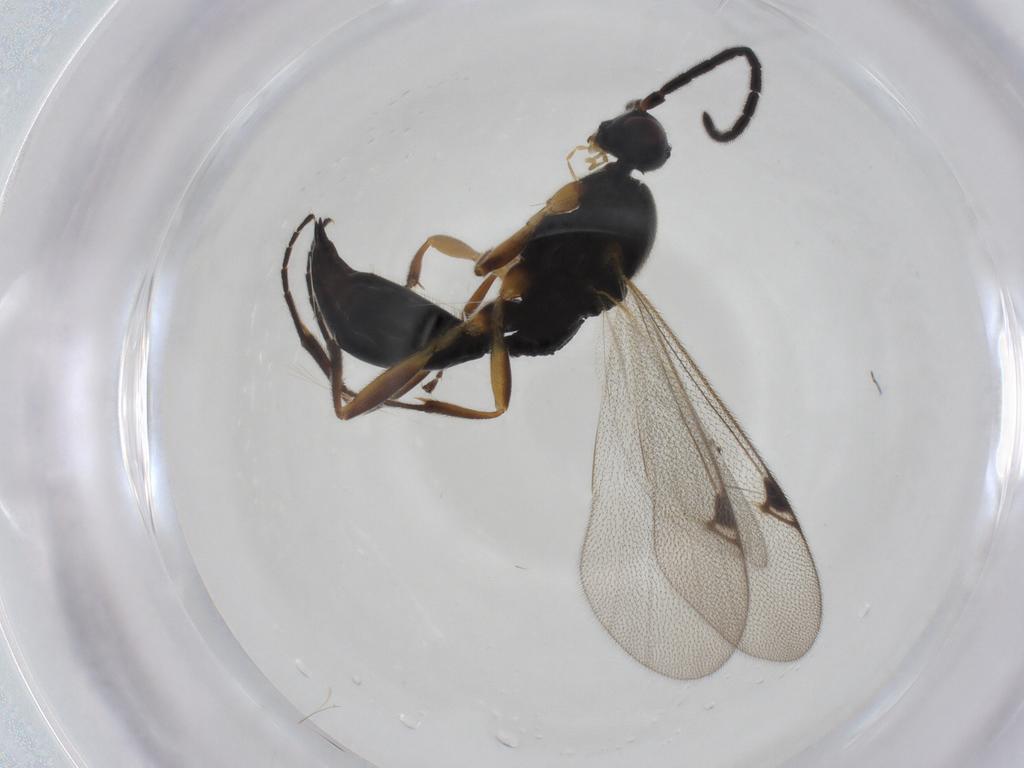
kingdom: Animalia
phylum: Arthropoda
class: Insecta
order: Hymenoptera
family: Proctotrupidae
